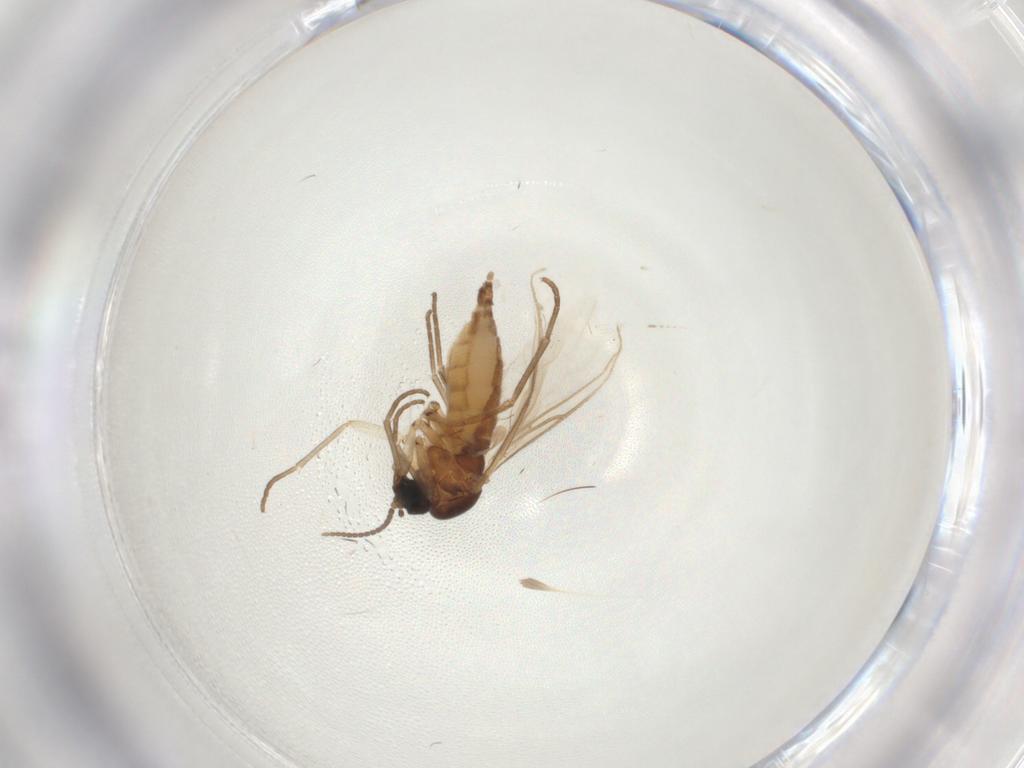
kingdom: Animalia
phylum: Arthropoda
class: Insecta
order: Diptera
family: Sciaridae
